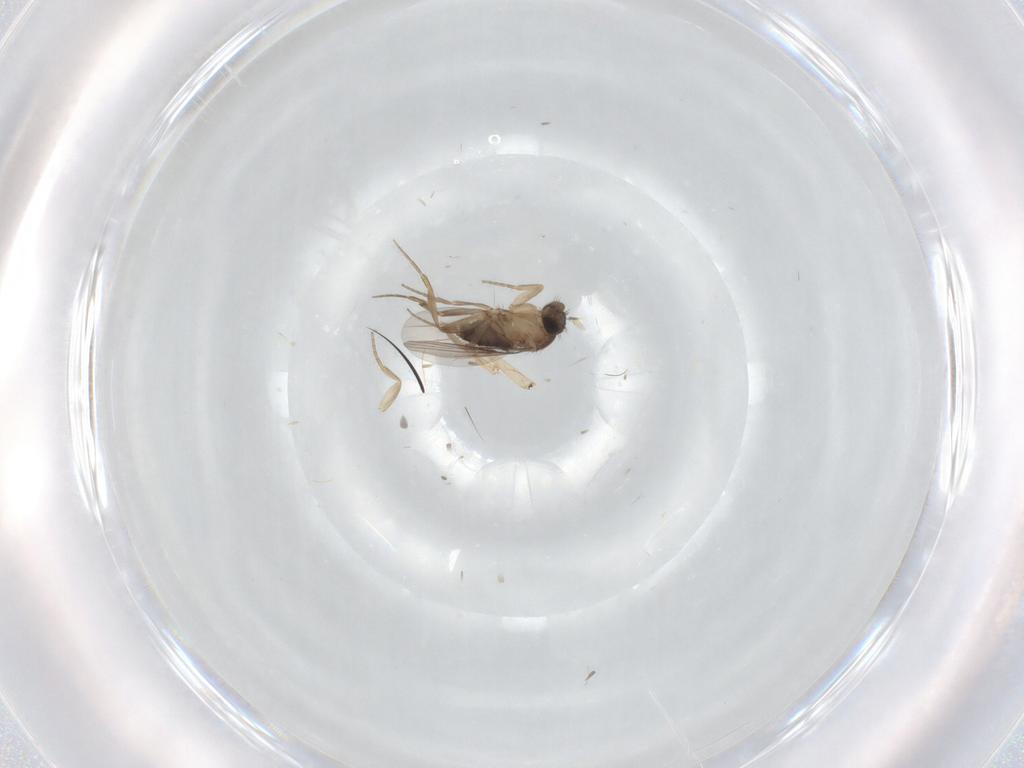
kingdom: Animalia
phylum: Arthropoda
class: Insecta
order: Diptera
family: Sciaridae
